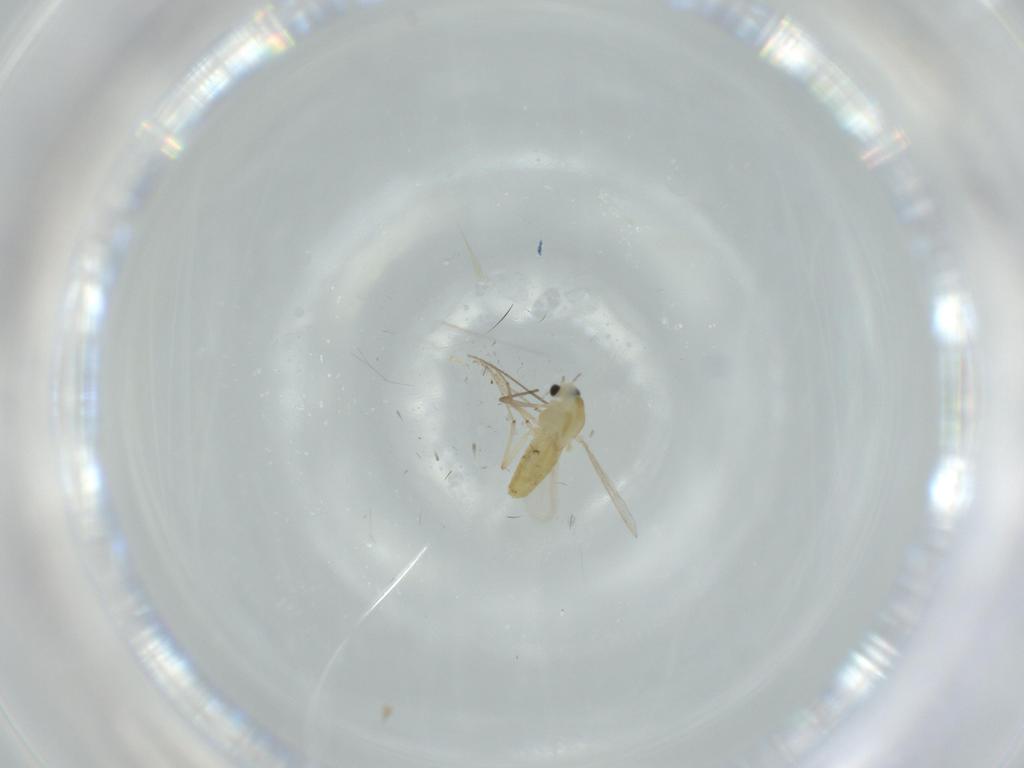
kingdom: Animalia
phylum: Arthropoda
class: Insecta
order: Diptera
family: Milichiidae
